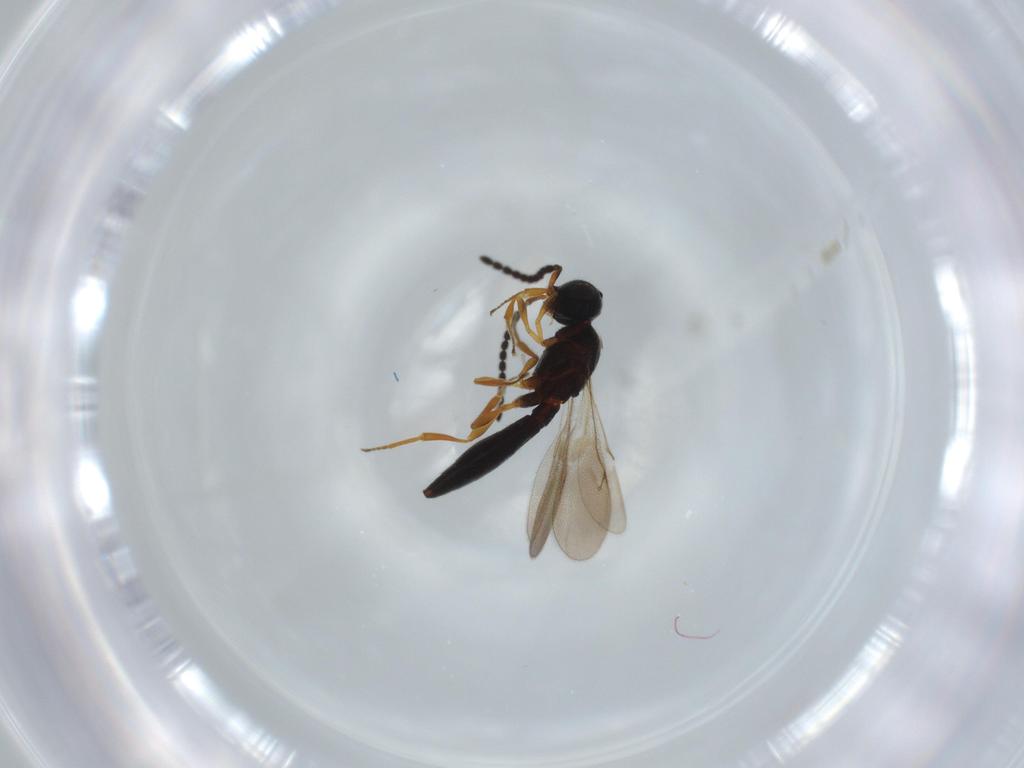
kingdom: Animalia
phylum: Arthropoda
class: Insecta
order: Hymenoptera
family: Scelionidae
